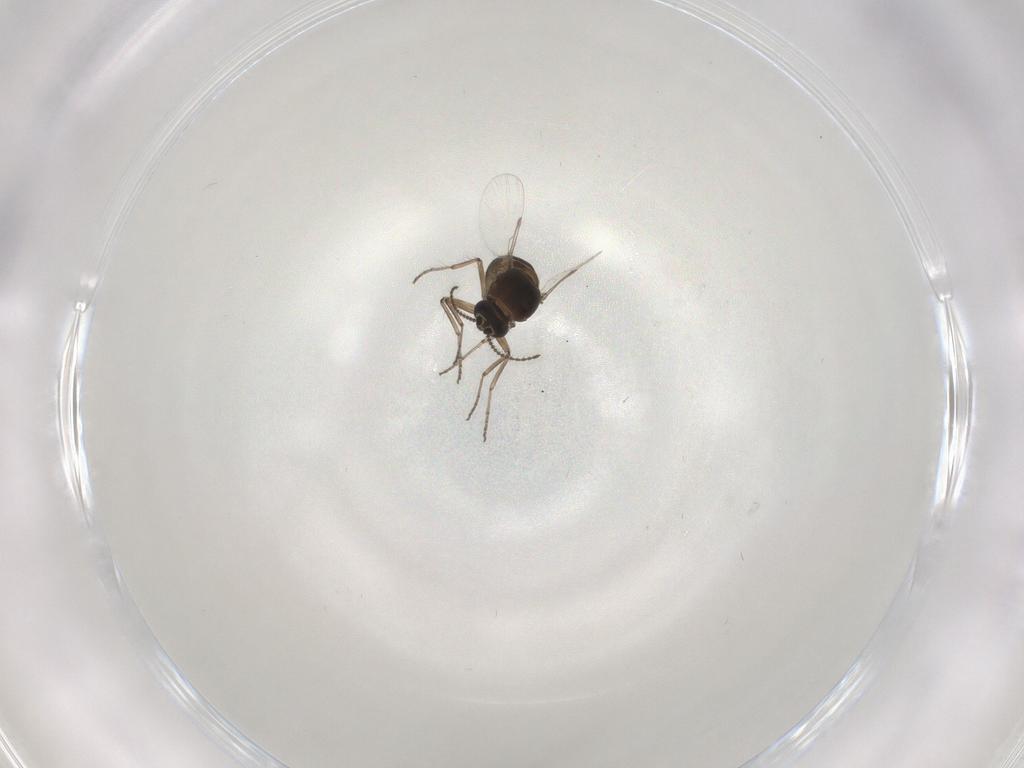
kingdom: Animalia
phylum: Arthropoda
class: Insecta
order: Diptera
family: Ceratopogonidae
